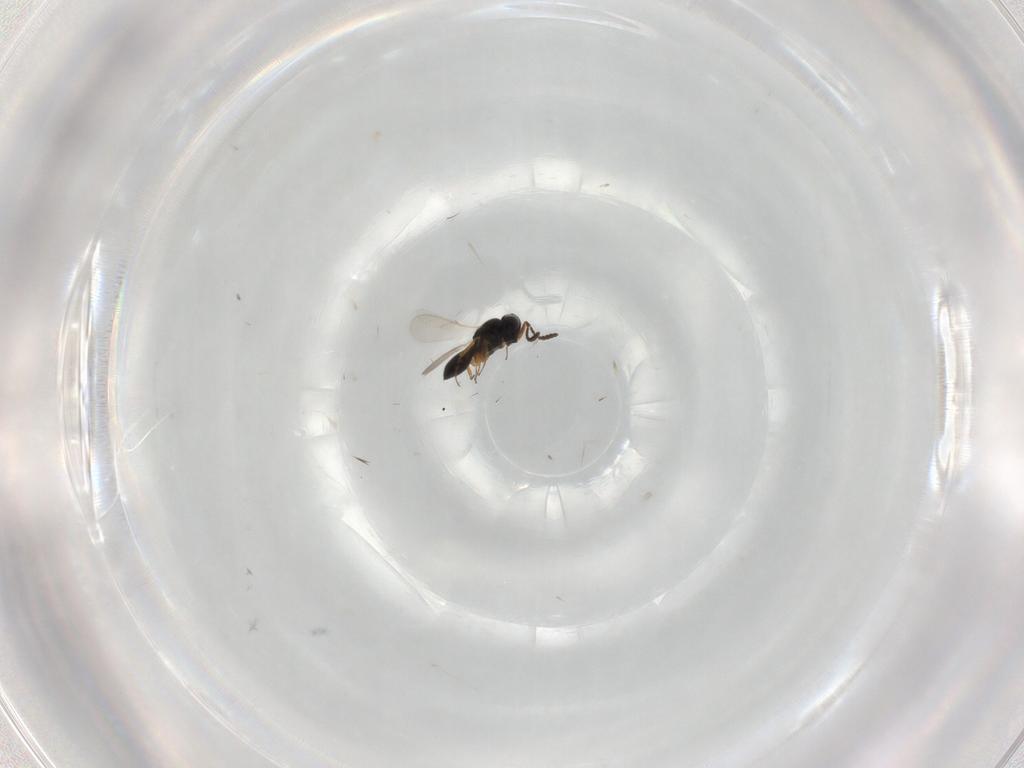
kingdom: Animalia
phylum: Arthropoda
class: Insecta
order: Hymenoptera
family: Scelionidae
